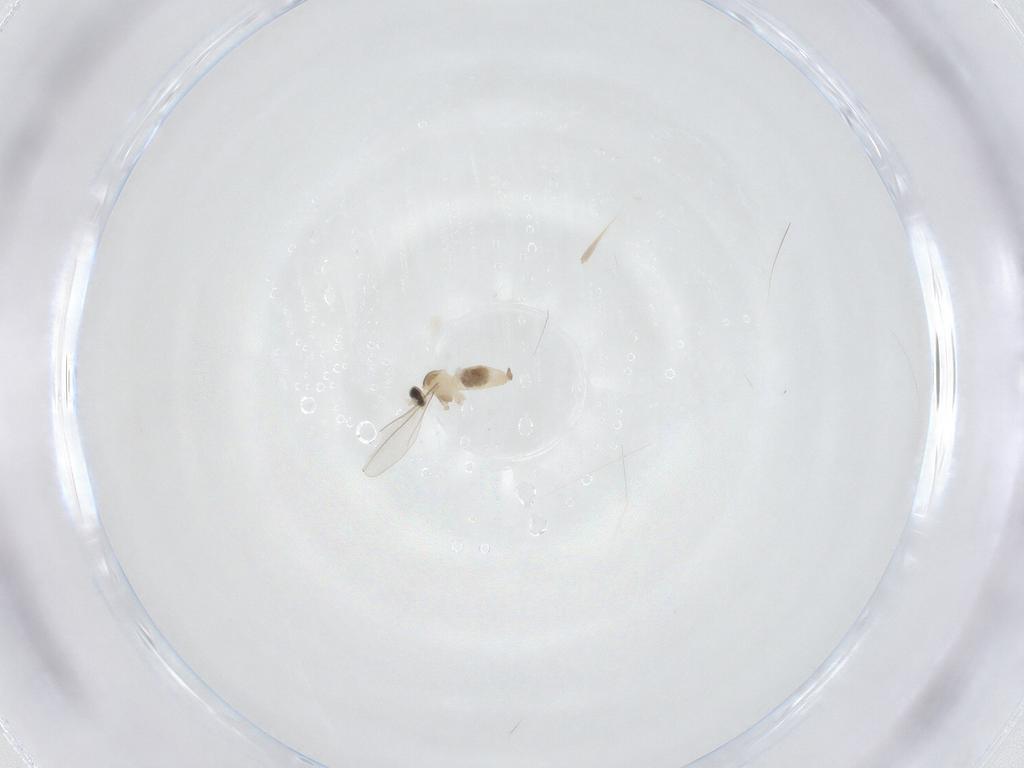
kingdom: Animalia
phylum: Arthropoda
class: Insecta
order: Diptera
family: Cecidomyiidae
